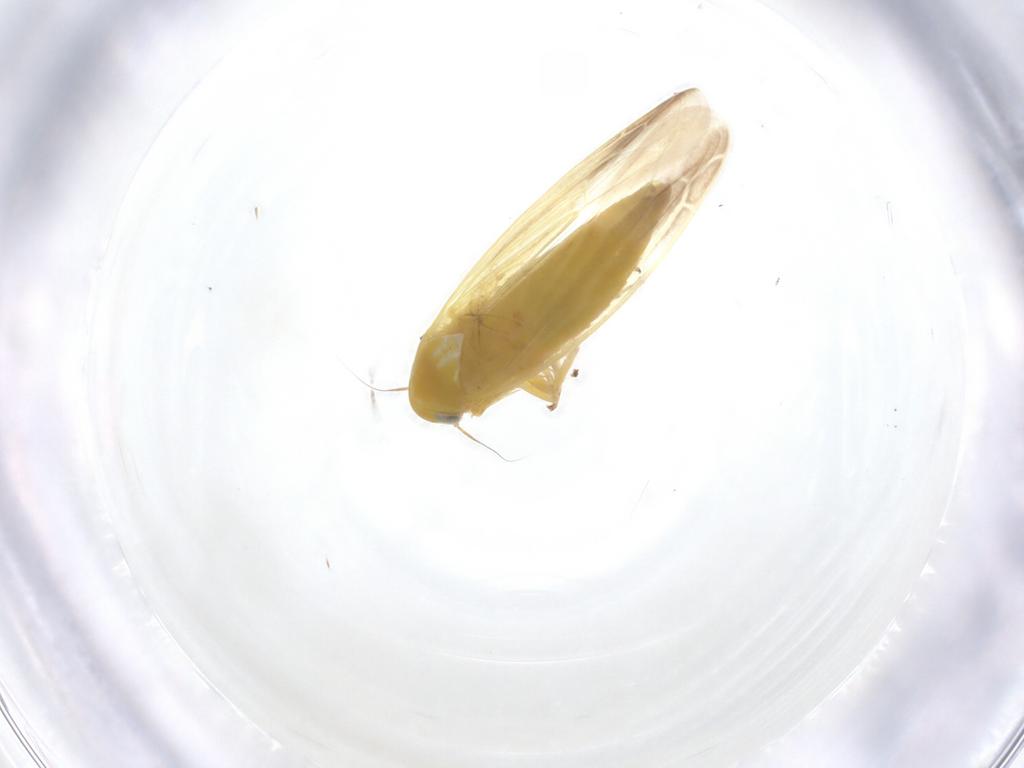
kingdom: Animalia
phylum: Arthropoda
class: Insecta
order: Hemiptera
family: Cicadellidae
